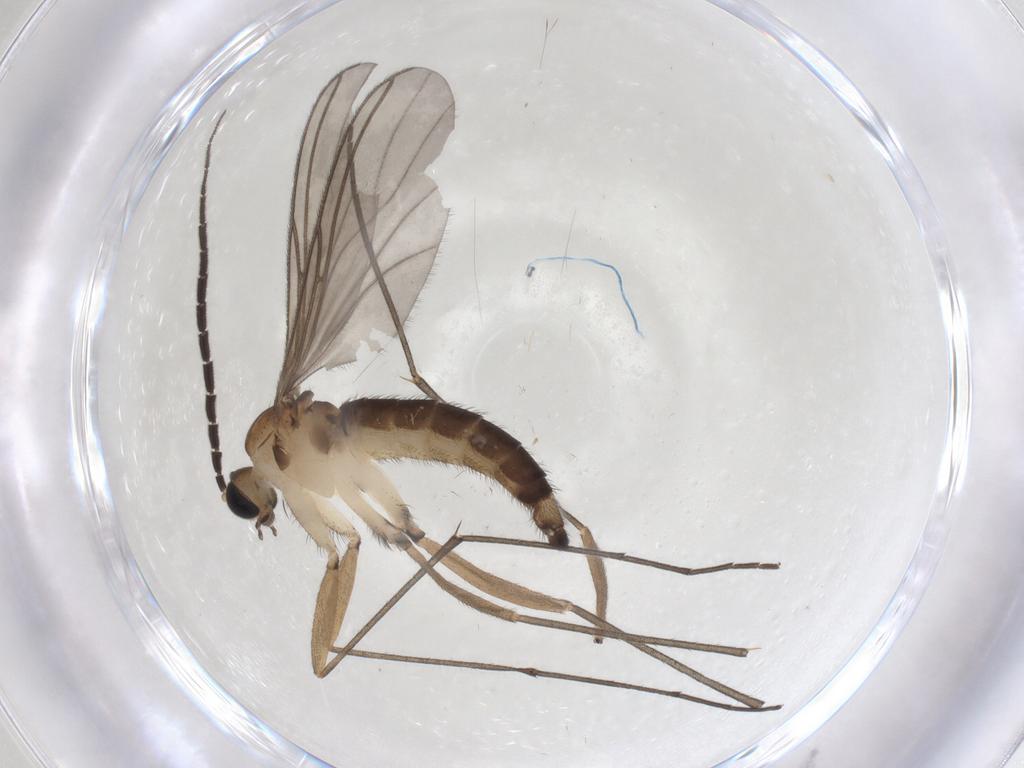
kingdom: Animalia
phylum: Arthropoda
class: Insecta
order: Diptera
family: Sciaridae
